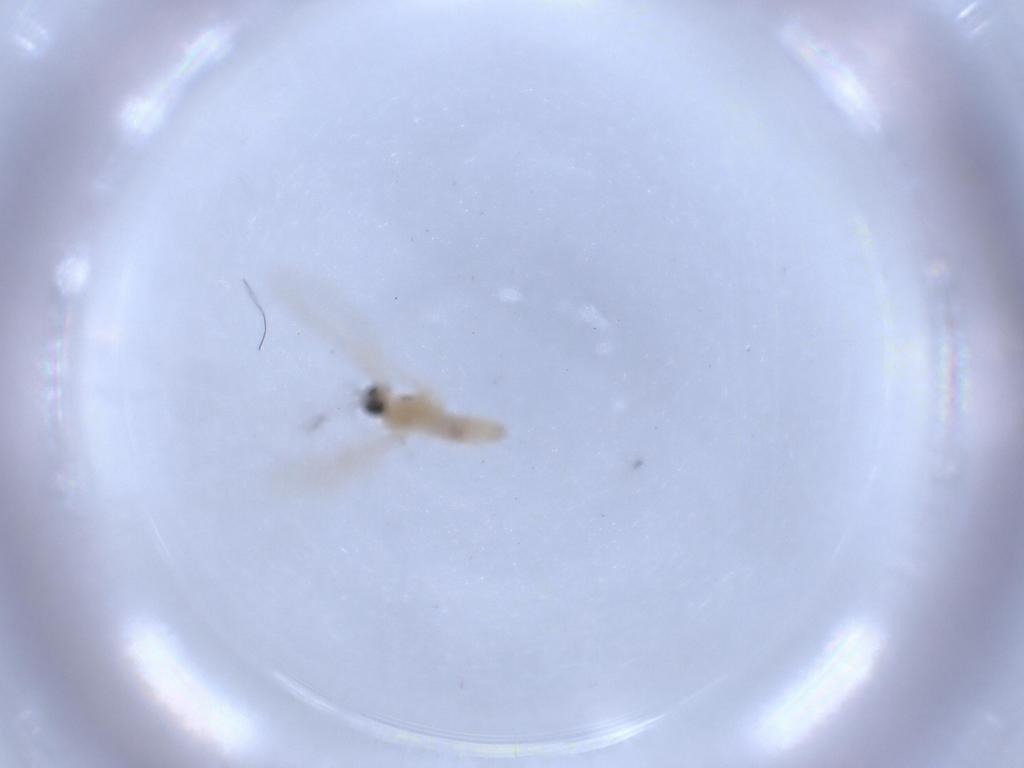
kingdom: Animalia
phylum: Arthropoda
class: Insecta
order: Diptera
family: Cecidomyiidae
